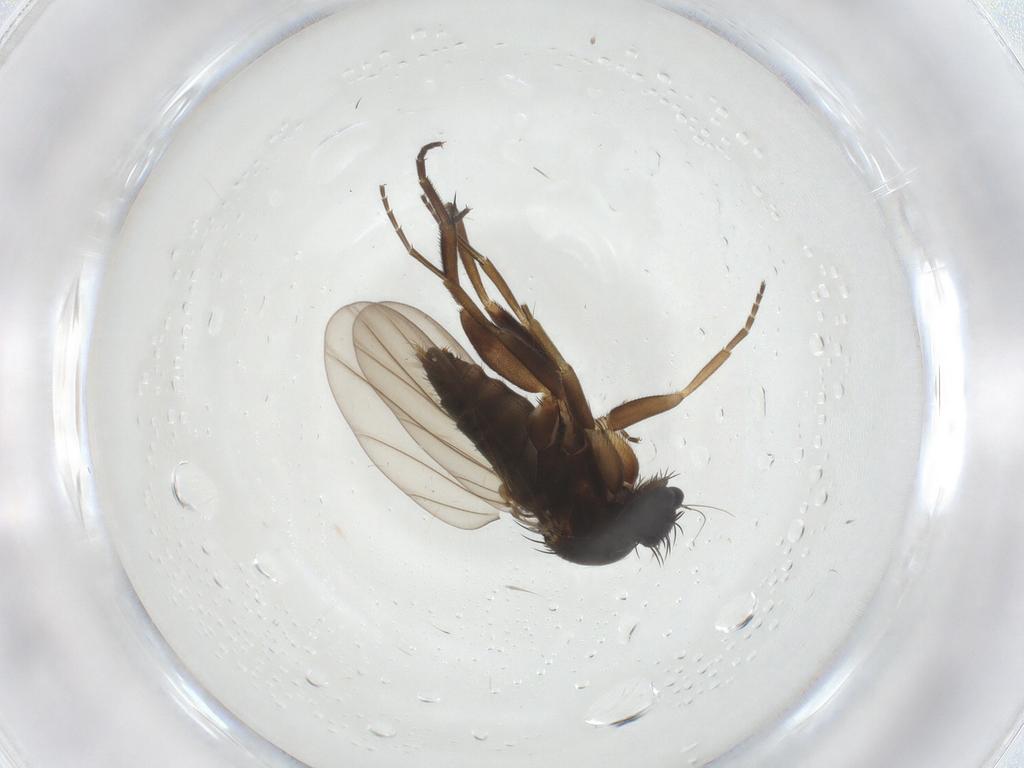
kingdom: Animalia
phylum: Arthropoda
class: Insecta
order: Diptera
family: Phoridae
